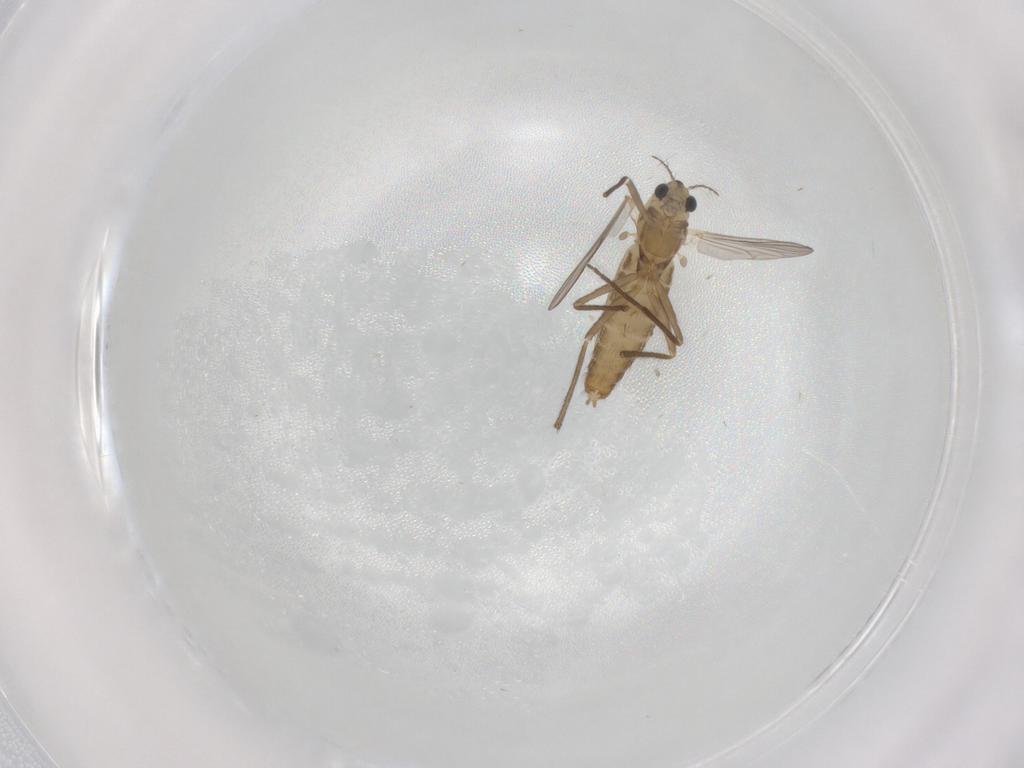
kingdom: Animalia
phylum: Arthropoda
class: Insecta
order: Diptera
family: Chironomidae
